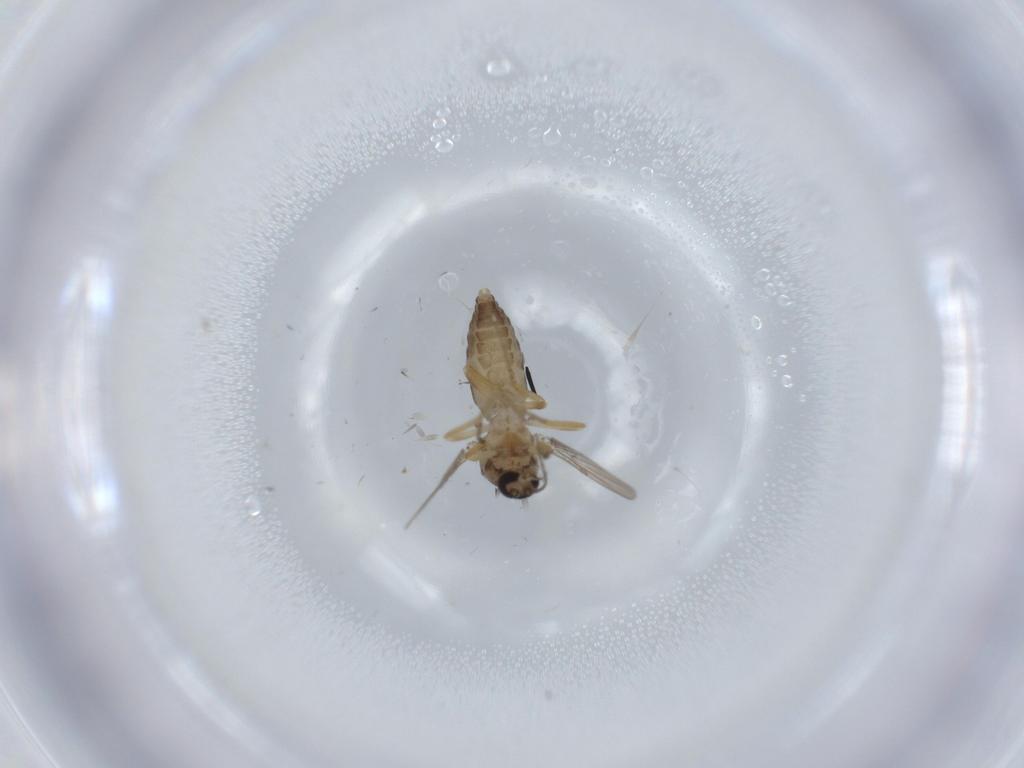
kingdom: Animalia
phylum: Arthropoda
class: Insecta
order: Diptera
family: Ceratopogonidae
